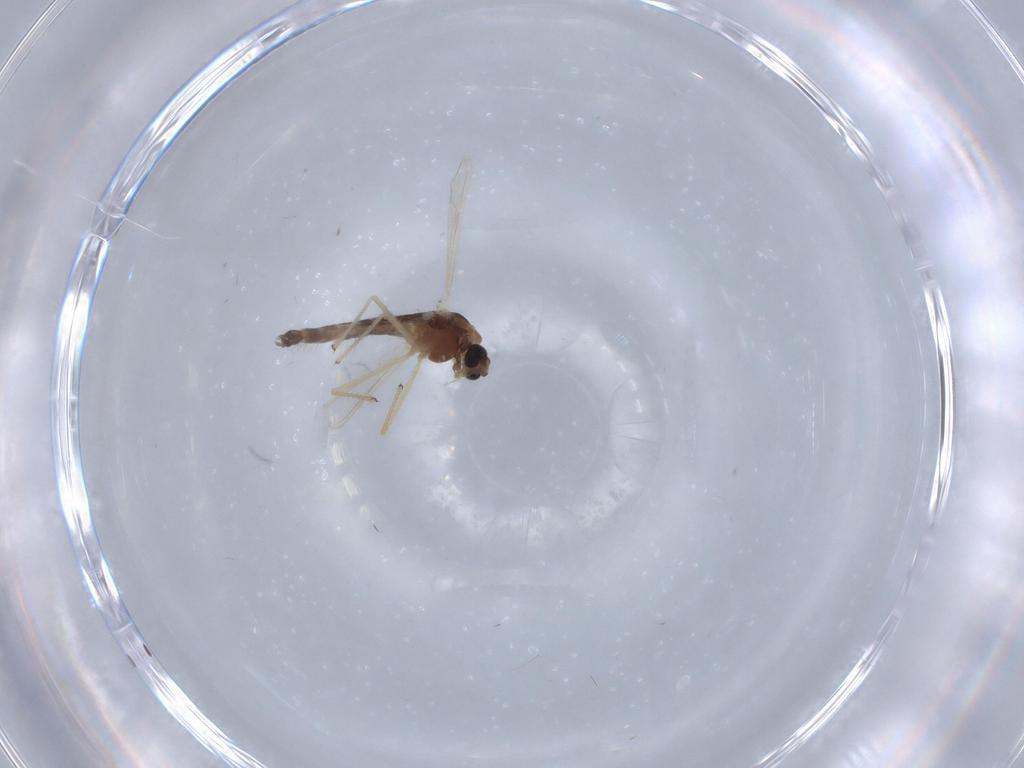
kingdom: Animalia
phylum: Arthropoda
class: Insecta
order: Diptera
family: Chironomidae
